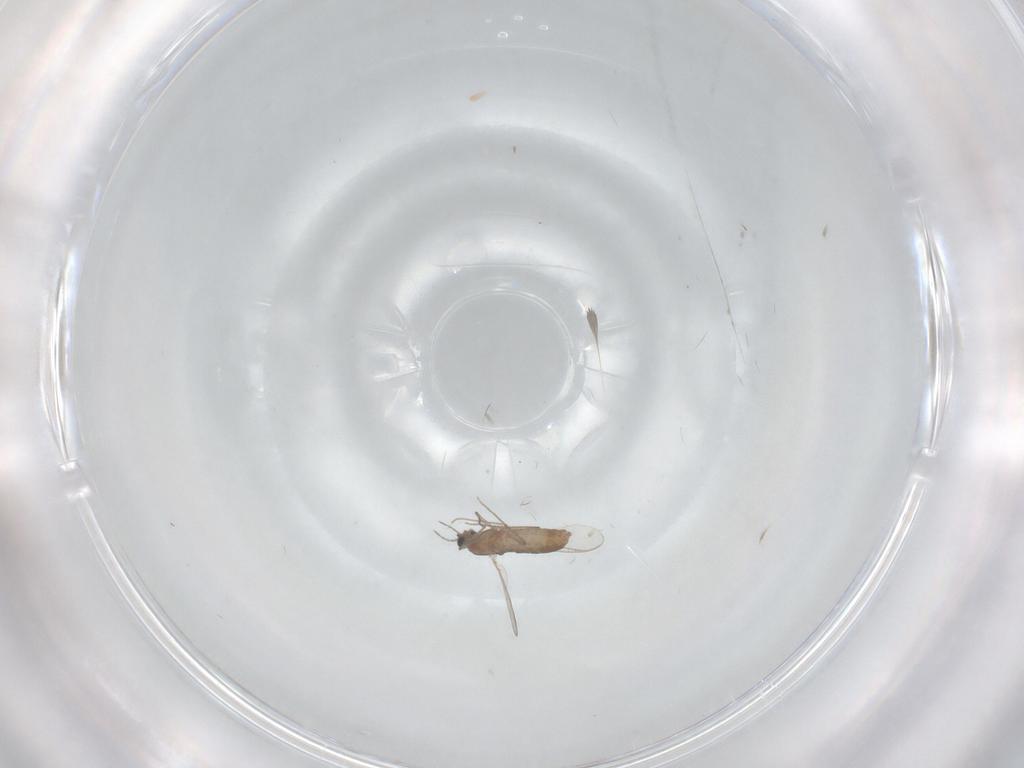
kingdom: Animalia
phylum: Arthropoda
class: Insecta
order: Diptera
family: Chironomidae
